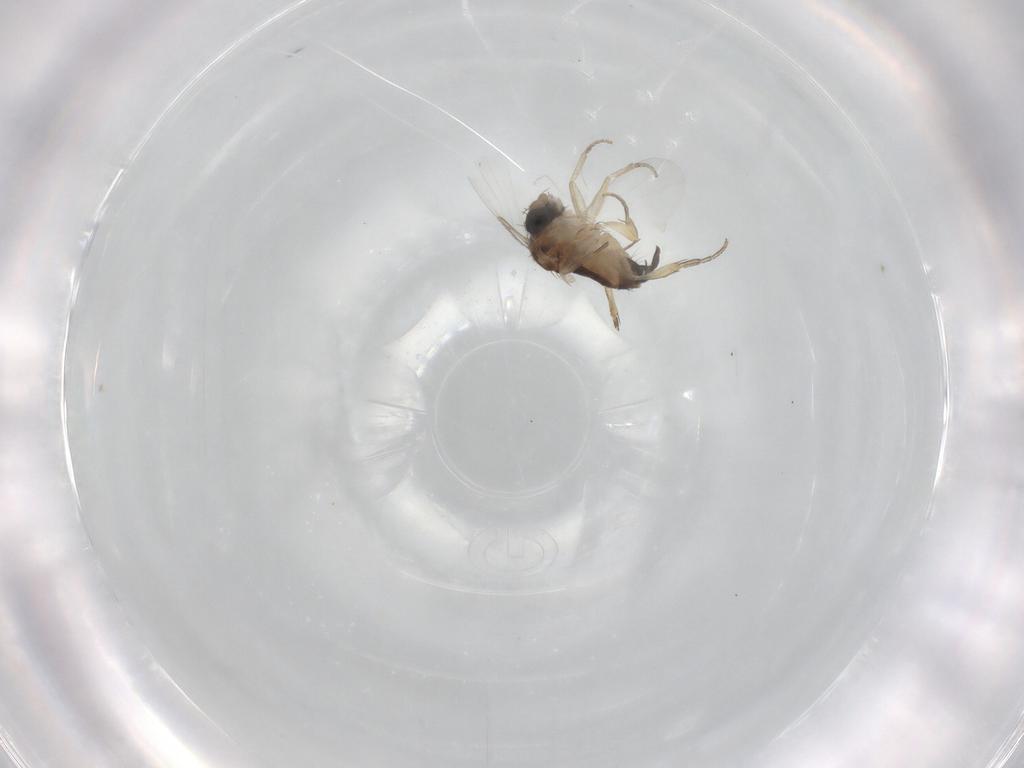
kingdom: Animalia
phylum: Arthropoda
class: Insecta
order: Diptera
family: Phoridae
